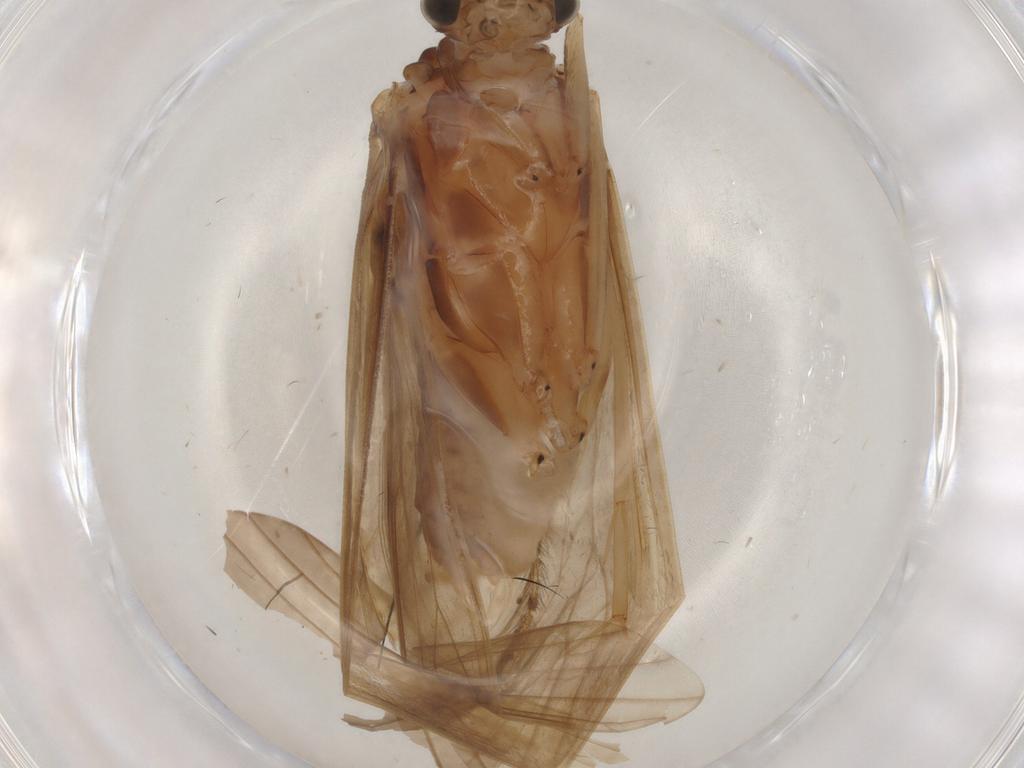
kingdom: Animalia
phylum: Arthropoda
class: Insecta
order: Trichoptera
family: Hydropsychidae
